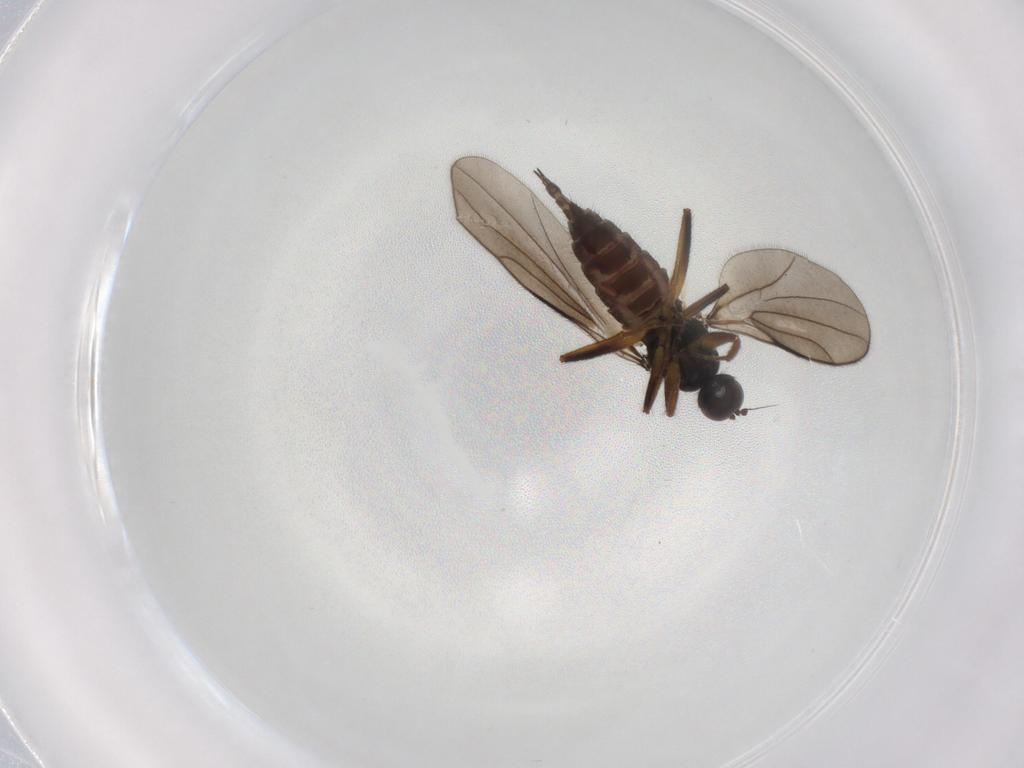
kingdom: Animalia
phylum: Arthropoda
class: Insecta
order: Diptera
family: Hybotidae
